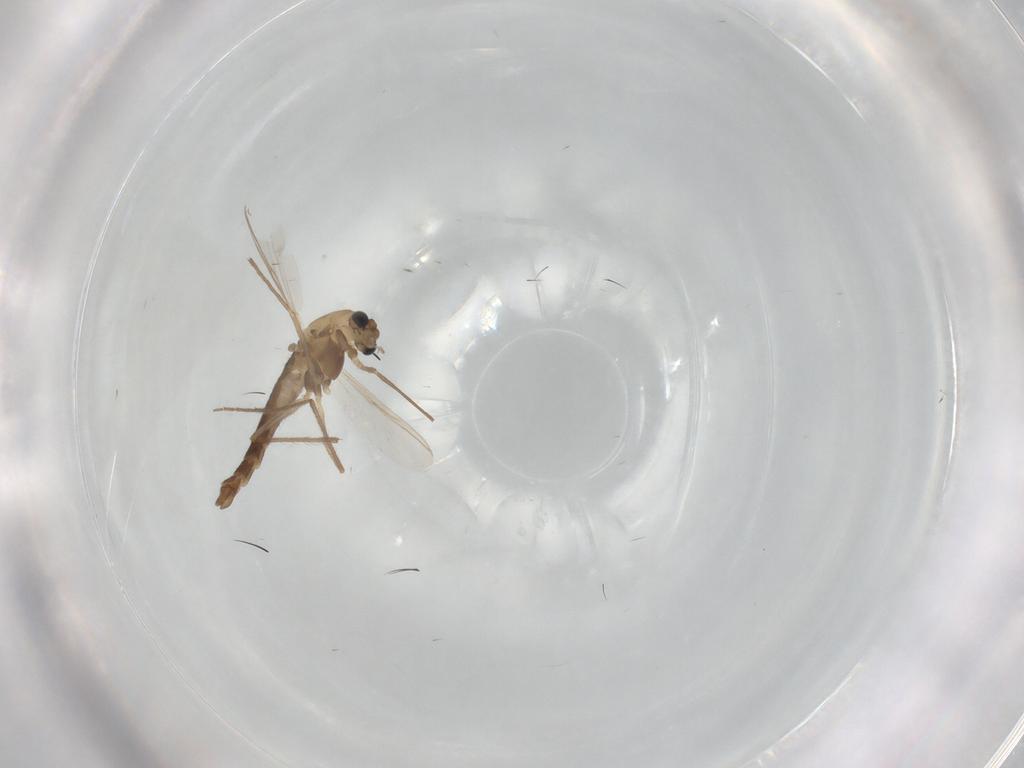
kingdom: Animalia
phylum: Arthropoda
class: Insecta
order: Diptera
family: Chironomidae
